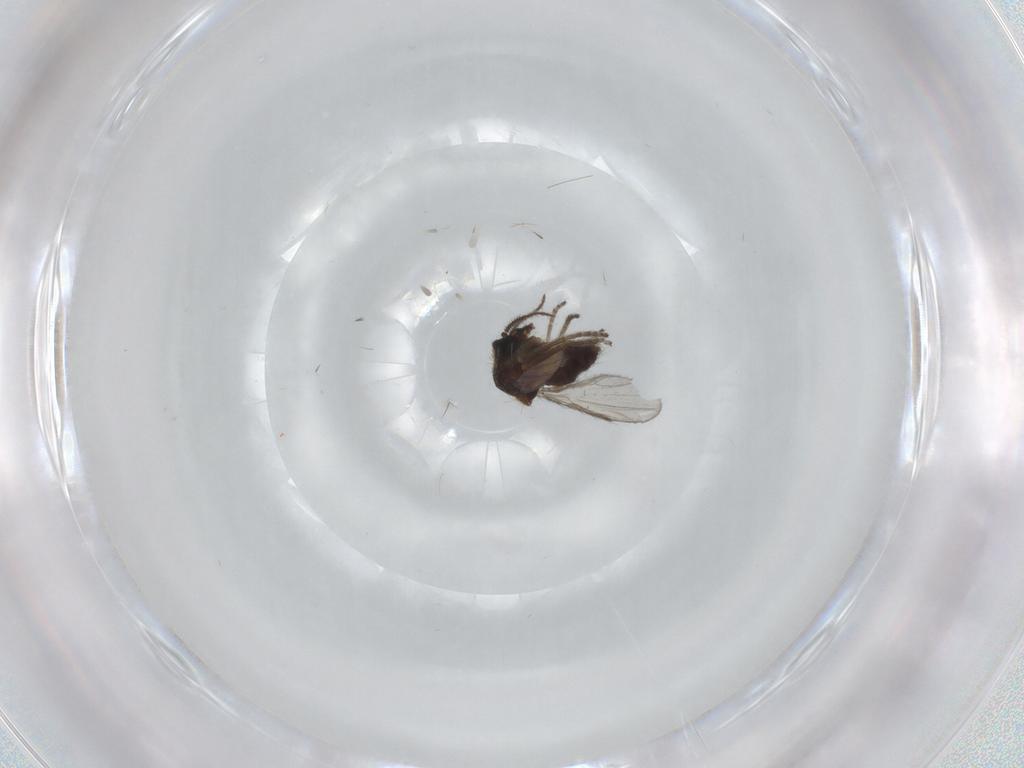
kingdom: Animalia
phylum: Arthropoda
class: Insecta
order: Diptera
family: Ceratopogonidae
